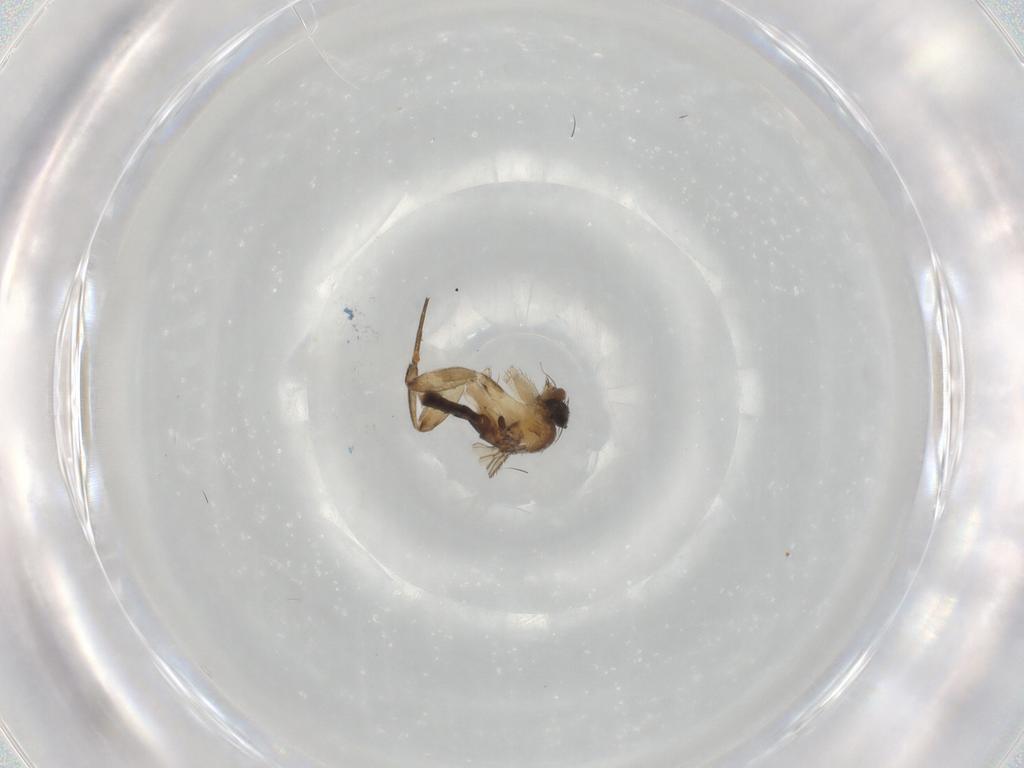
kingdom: Animalia
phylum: Arthropoda
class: Insecta
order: Diptera
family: Phoridae
